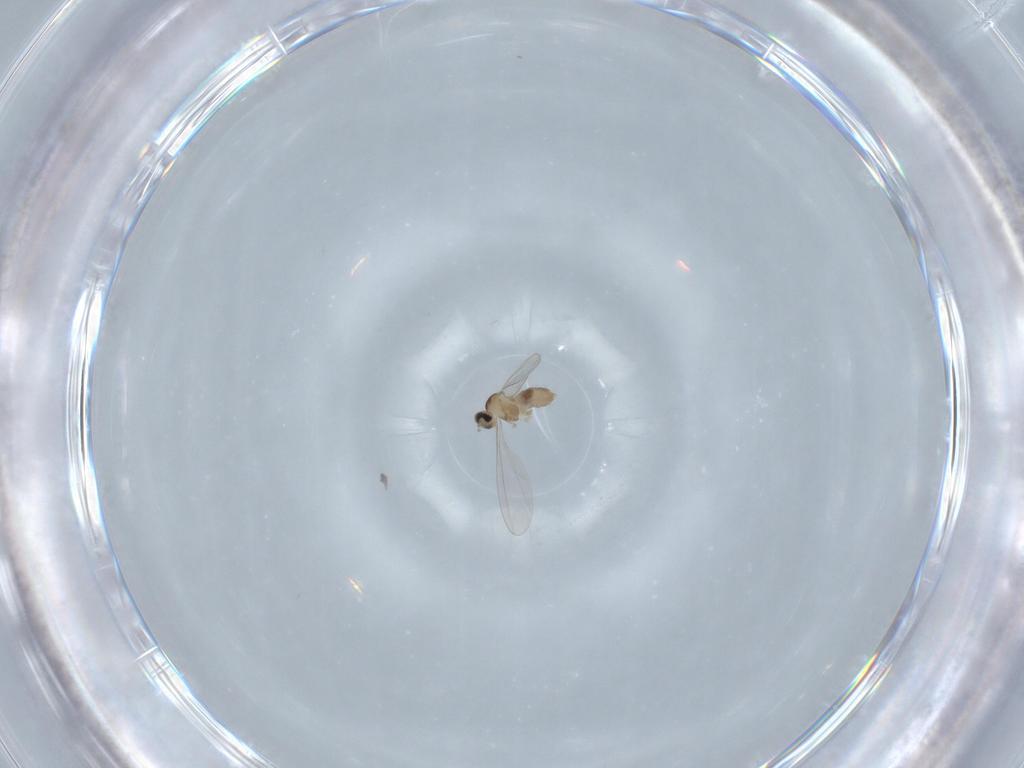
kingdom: Animalia
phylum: Arthropoda
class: Insecta
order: Diptera
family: Cecidomyiidae
